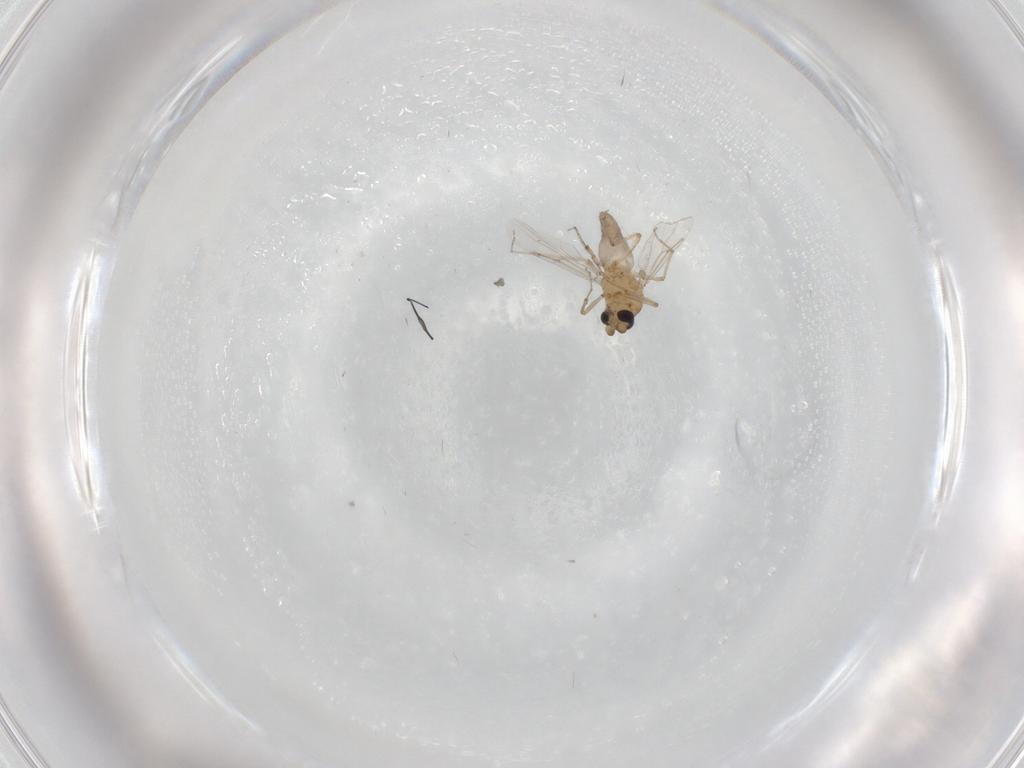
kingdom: Animalia
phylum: Arthropoda
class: Insecta
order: Diptera
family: Ceratopogonidae
